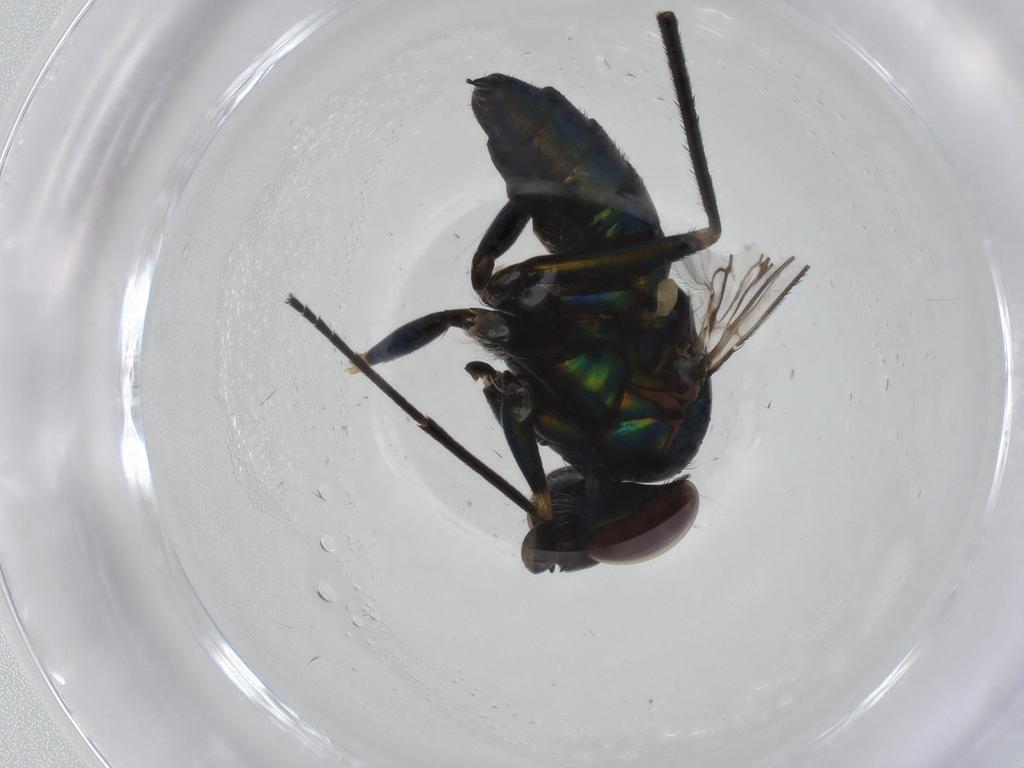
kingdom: Animalia
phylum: Arthropoda
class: Insecta
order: Diptera
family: Dolichopodidae
